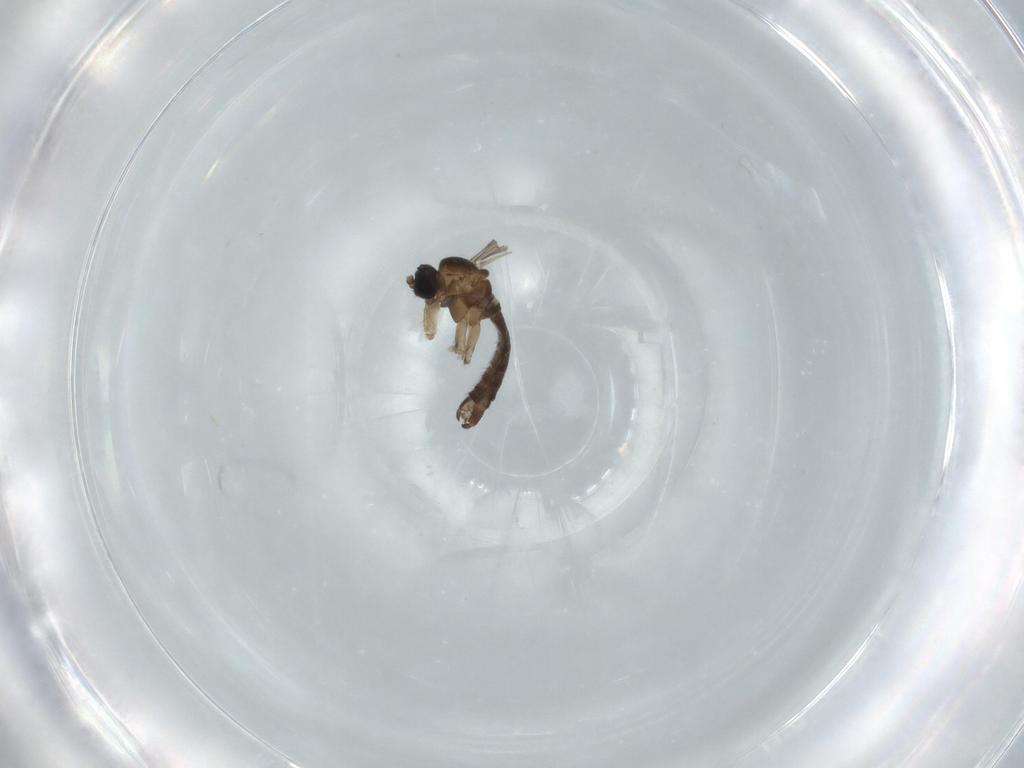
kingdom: Animalia
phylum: Arthropoda
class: Insecta
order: Diptera
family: Sciaridae
